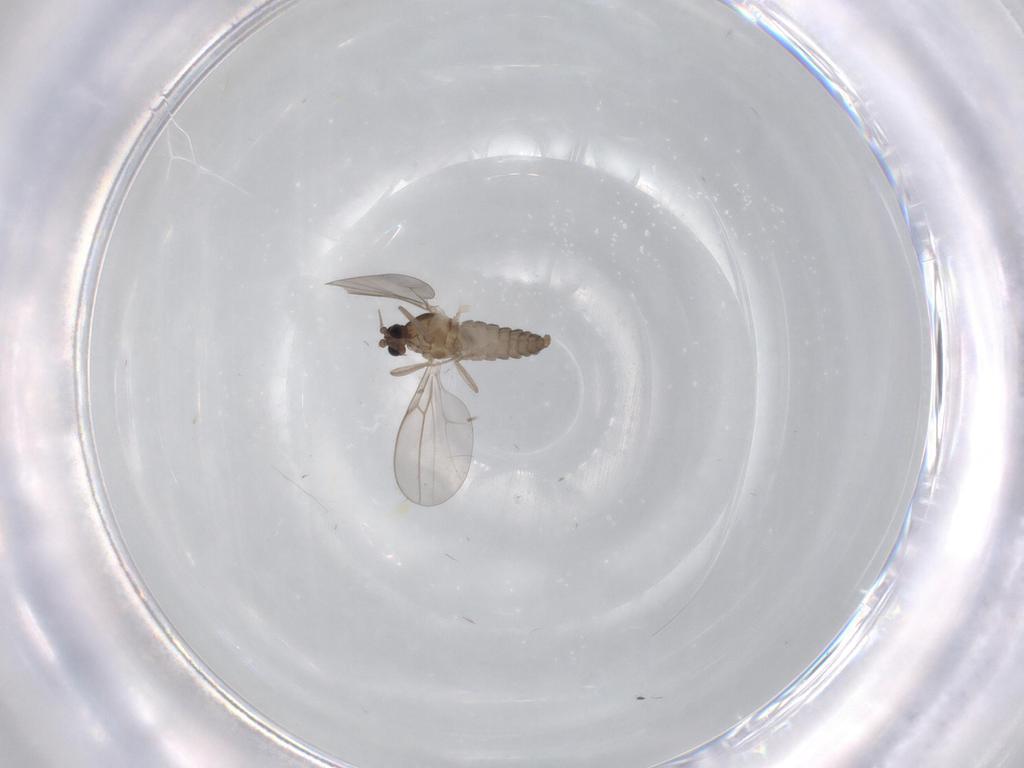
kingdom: Animalia
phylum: Arthropoda
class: Insecta
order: Diptera
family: Cecidomyiidae
